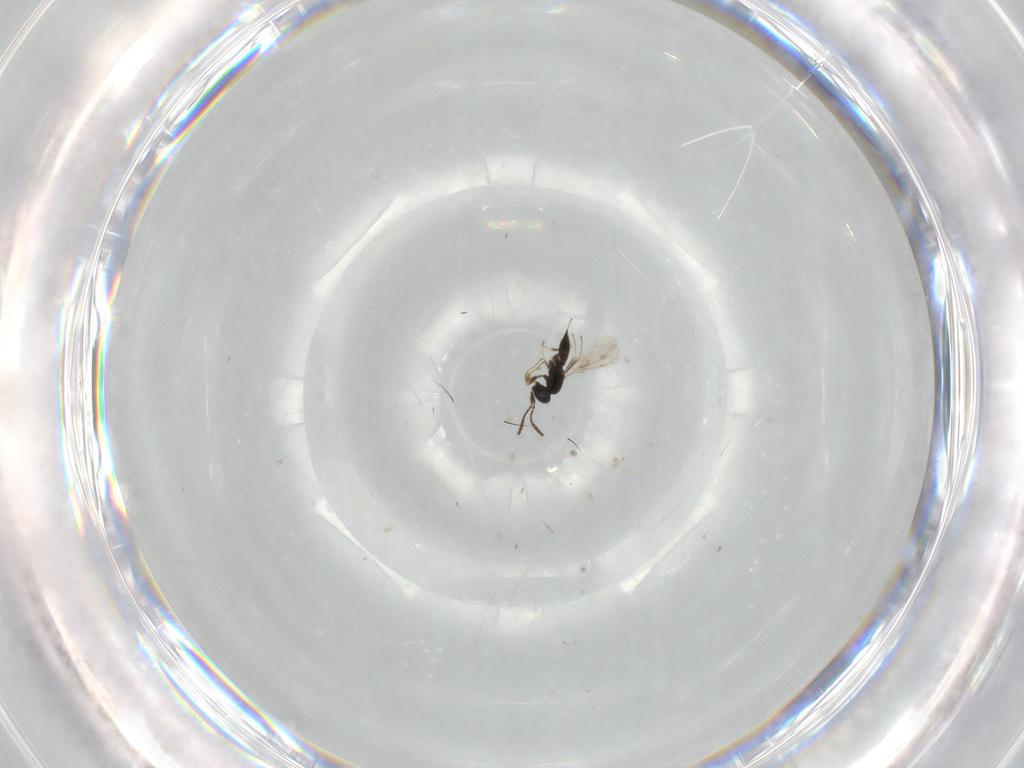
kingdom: Animalia
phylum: Arthropoda
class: Insecta
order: Hymenoptera
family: Scelionidae
